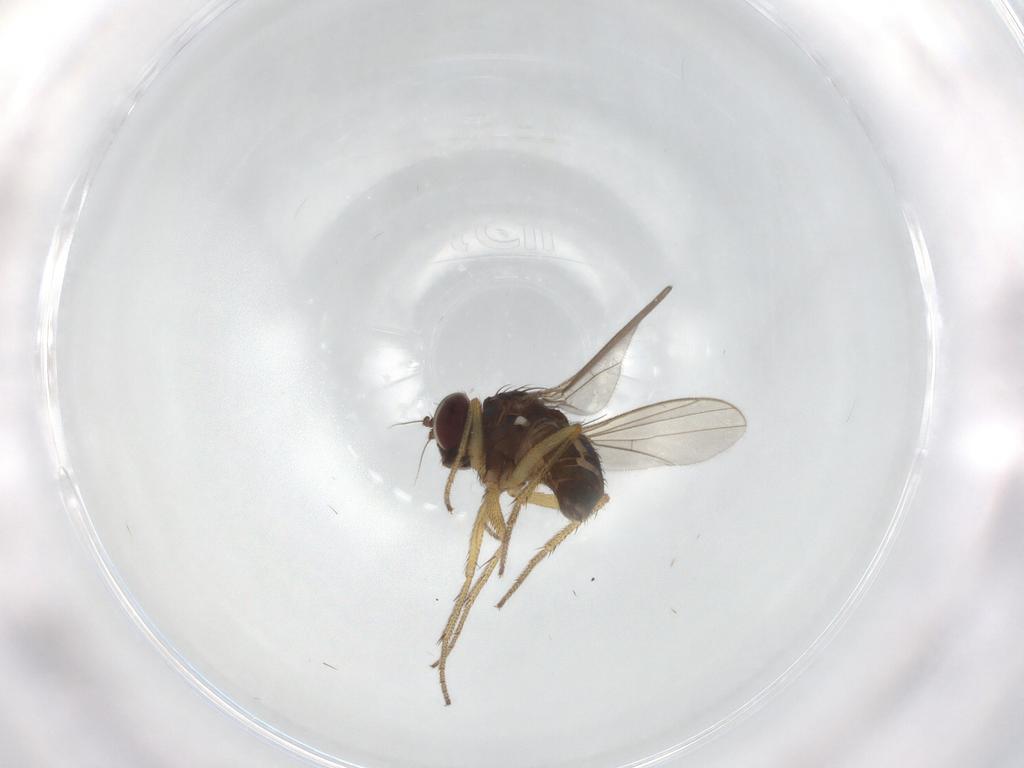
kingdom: Animalia
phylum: Arthropoda
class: Insecta
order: Diptera
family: Dolichopodidae
